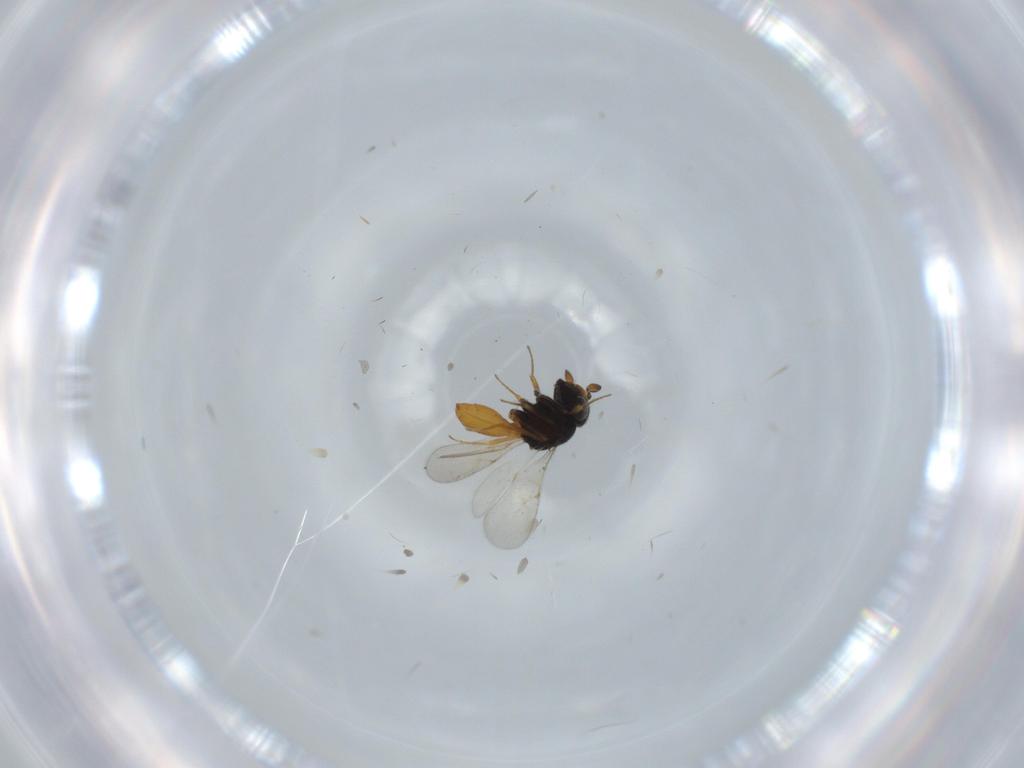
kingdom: Animalia
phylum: Arthropoda
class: Insecta
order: Hymenoptera
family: Scelionidae
